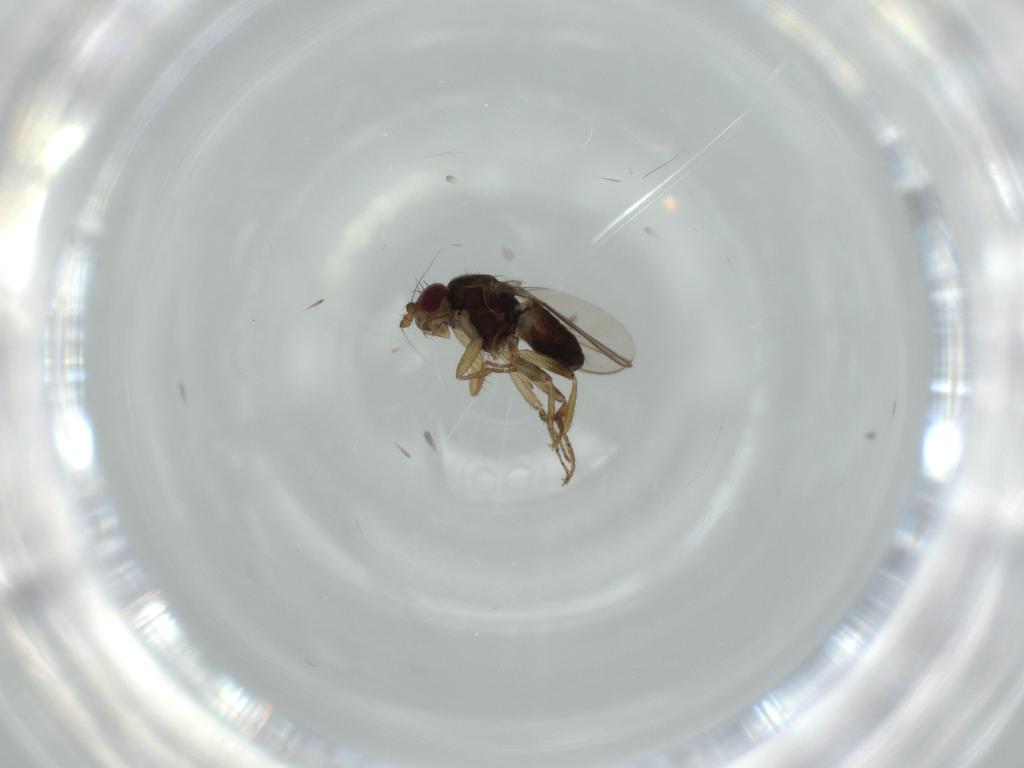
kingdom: Animalia
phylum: Arthropoda
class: Insecta
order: Diptera
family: Sphaeroceridae
